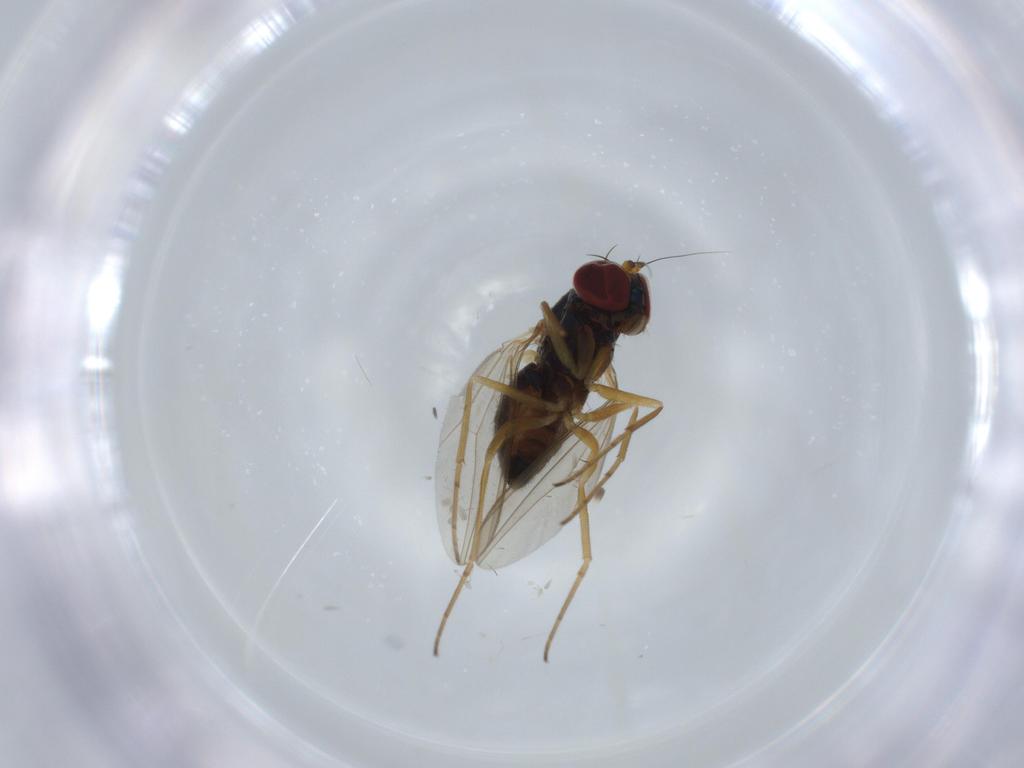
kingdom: Animalia
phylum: Arthropoda
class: Insecta
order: Diptera
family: Dolichopodidae
